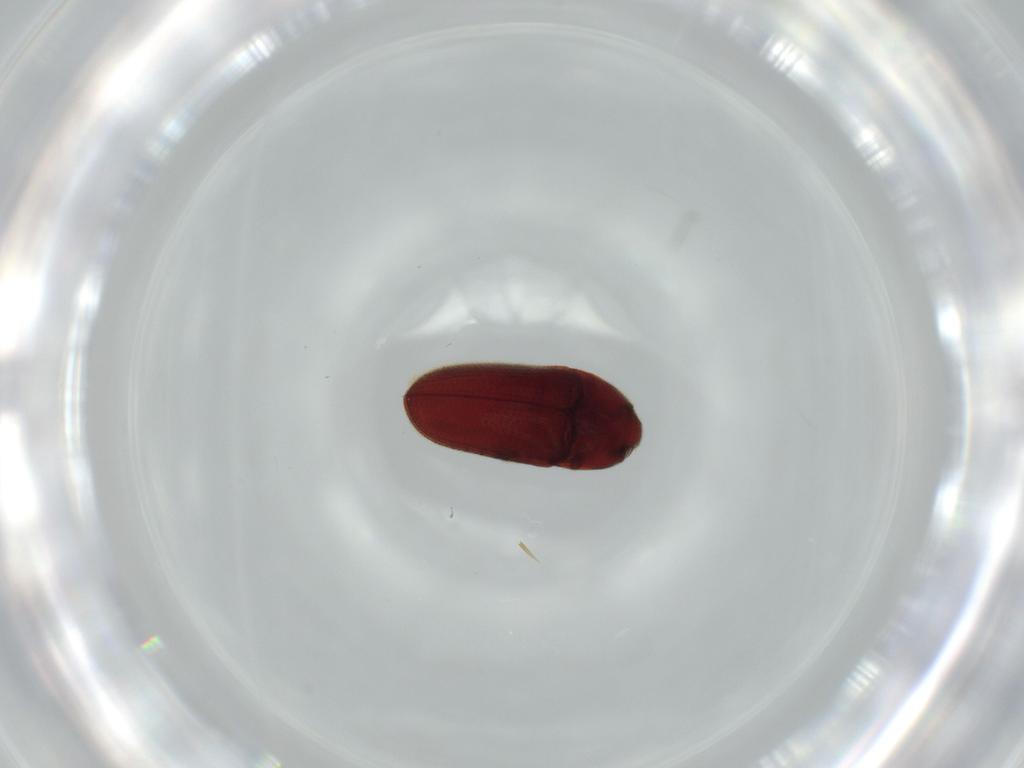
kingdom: Animalia
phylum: Arthropoda
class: Insecta
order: Coleoptera
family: Throscidae
